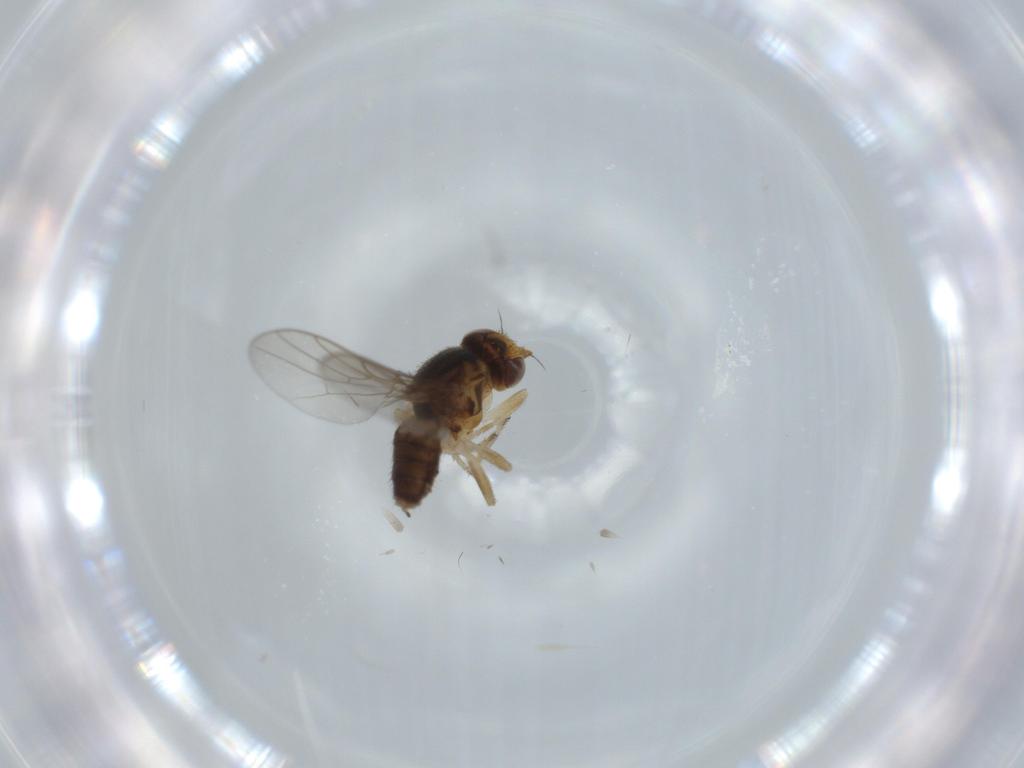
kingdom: Animalia
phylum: Arthropoda
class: Insecta
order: Diptera
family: Chloropidae
